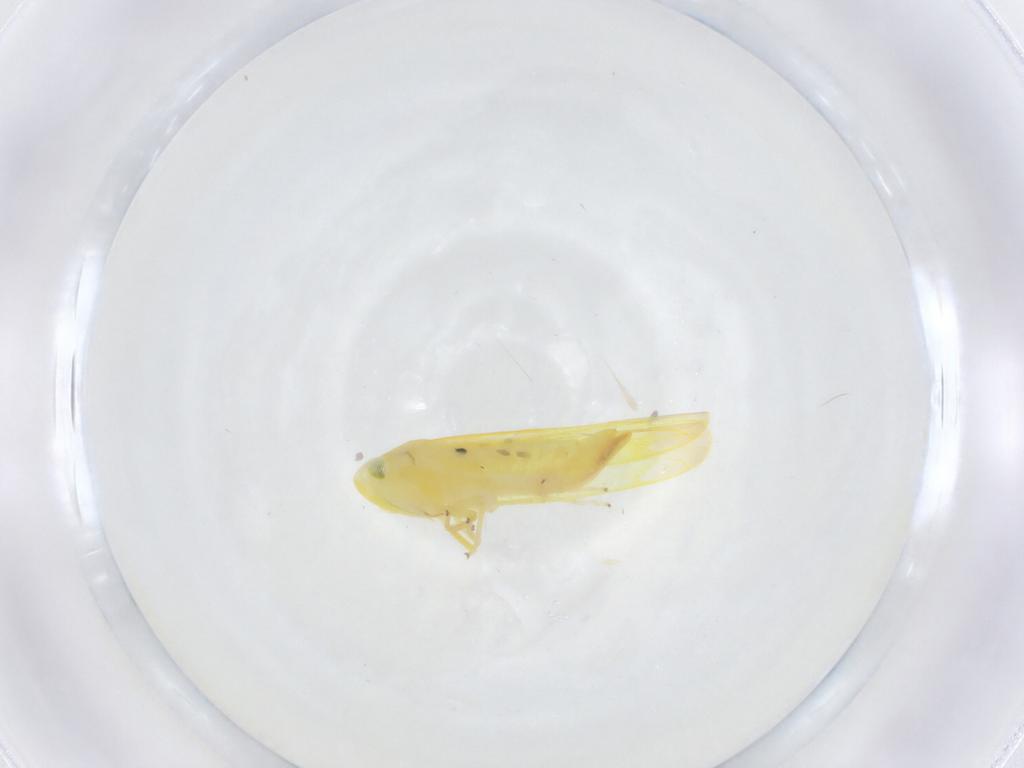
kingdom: Animalia
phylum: Arthropoda
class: Insecta
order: Hemiptera
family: Cicadellidae
